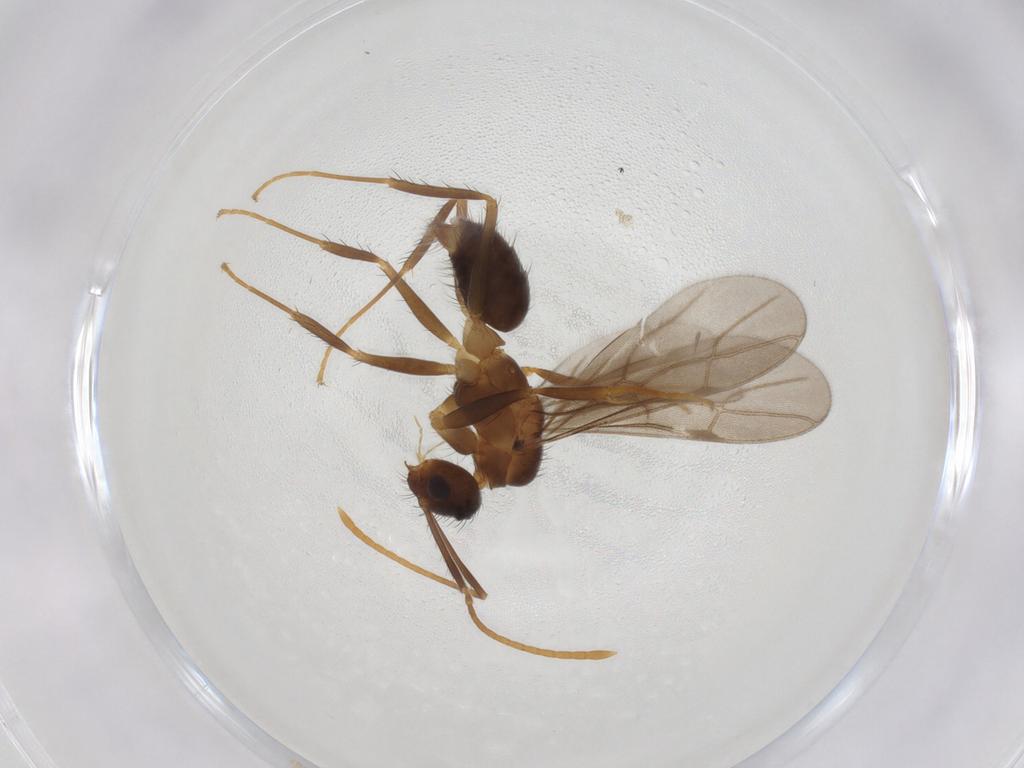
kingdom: Animalia
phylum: Arthropoda
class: Insecta
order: Hymenoptera
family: Formicidae
